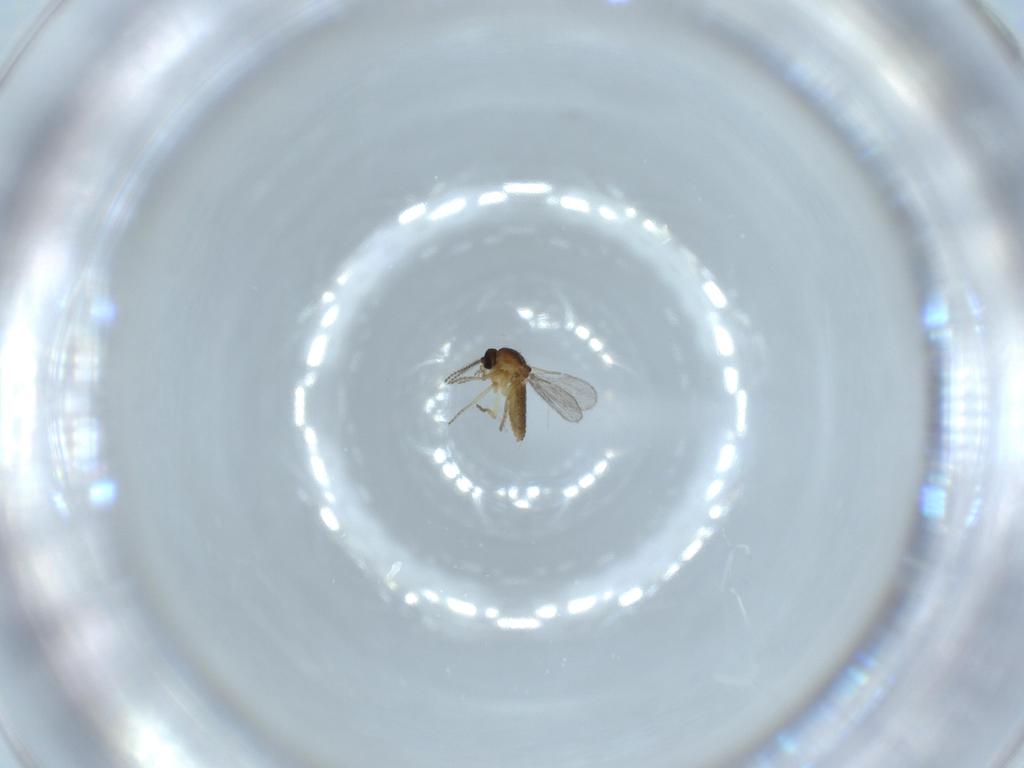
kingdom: Animalia
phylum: Arthropoda
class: Insecta
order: Diptera
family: Ceratopogonidae
